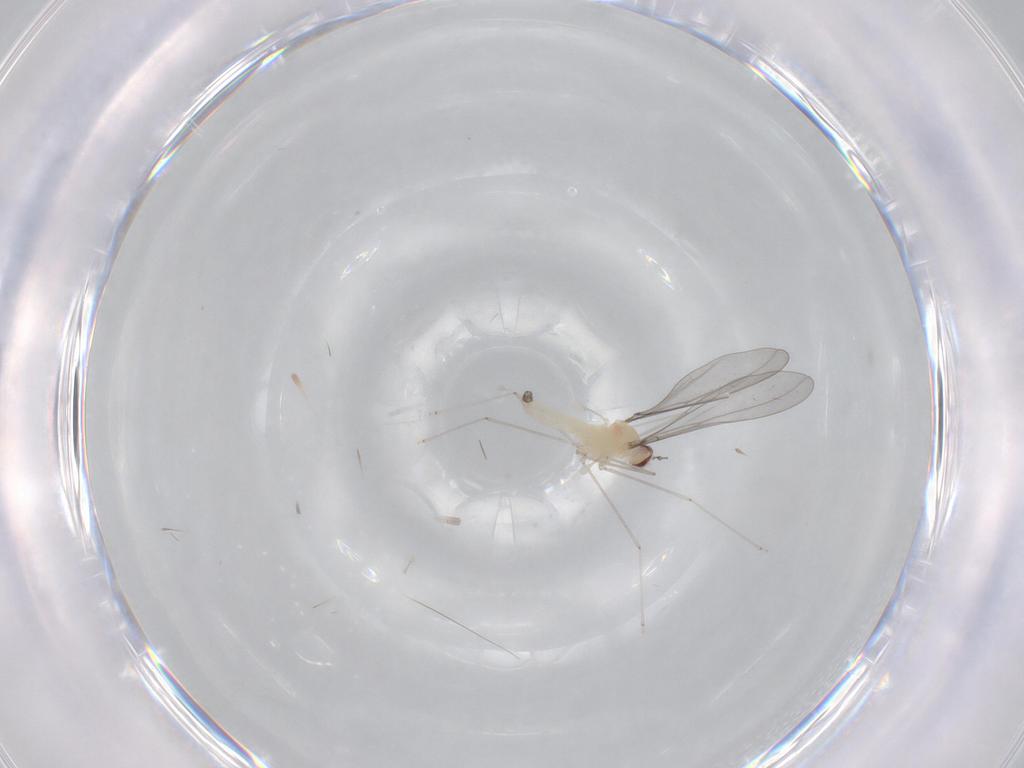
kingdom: Animalia
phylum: Arthropoda
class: Insecta
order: Diptera
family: Cecidomyiidae
